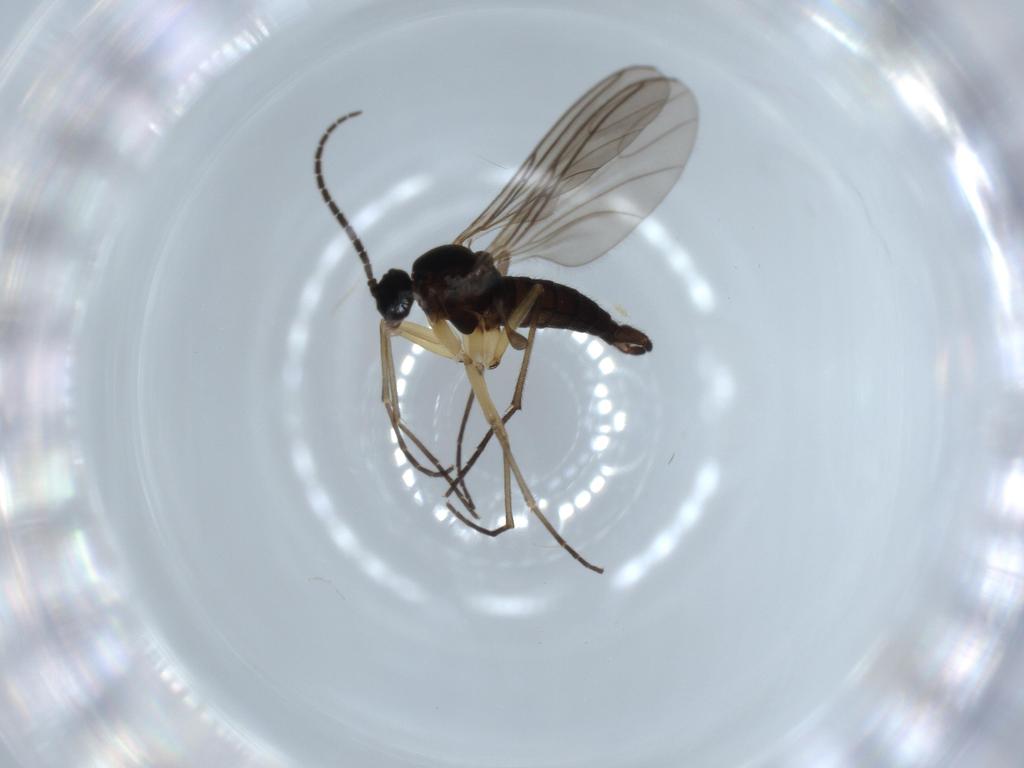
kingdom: Animalia
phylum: Arthropoda
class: Insecta
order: Diptera
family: Sciaridae
